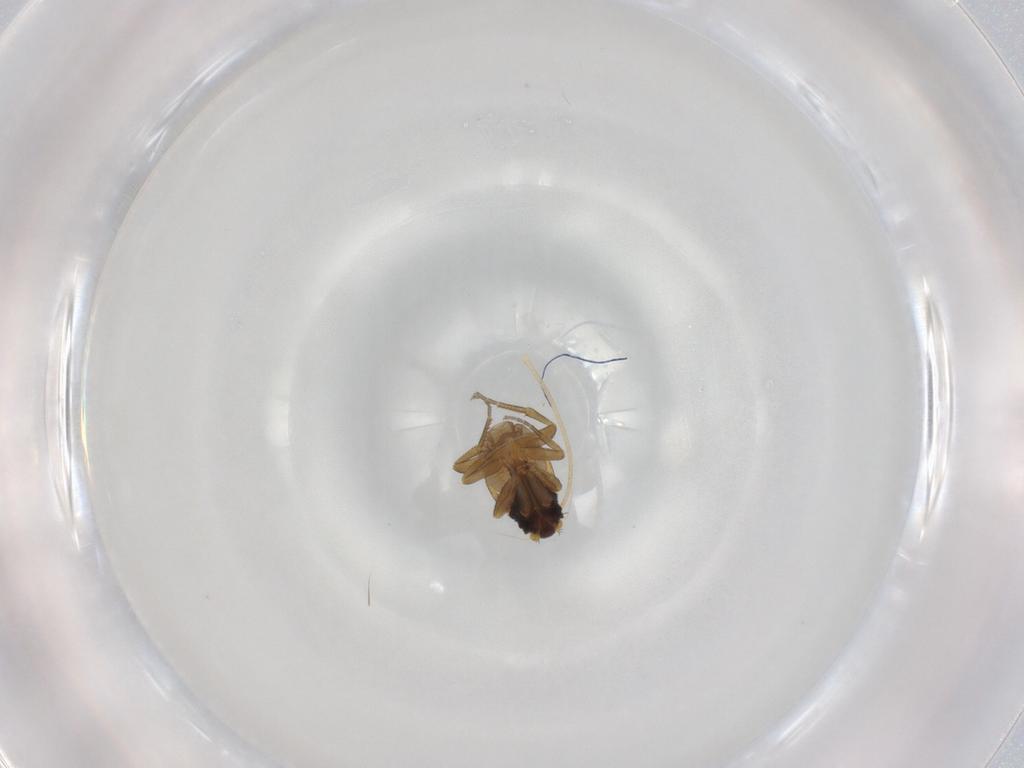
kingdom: Animalia
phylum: Arthropoda
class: Insecta
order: Diptera
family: Phoridae
